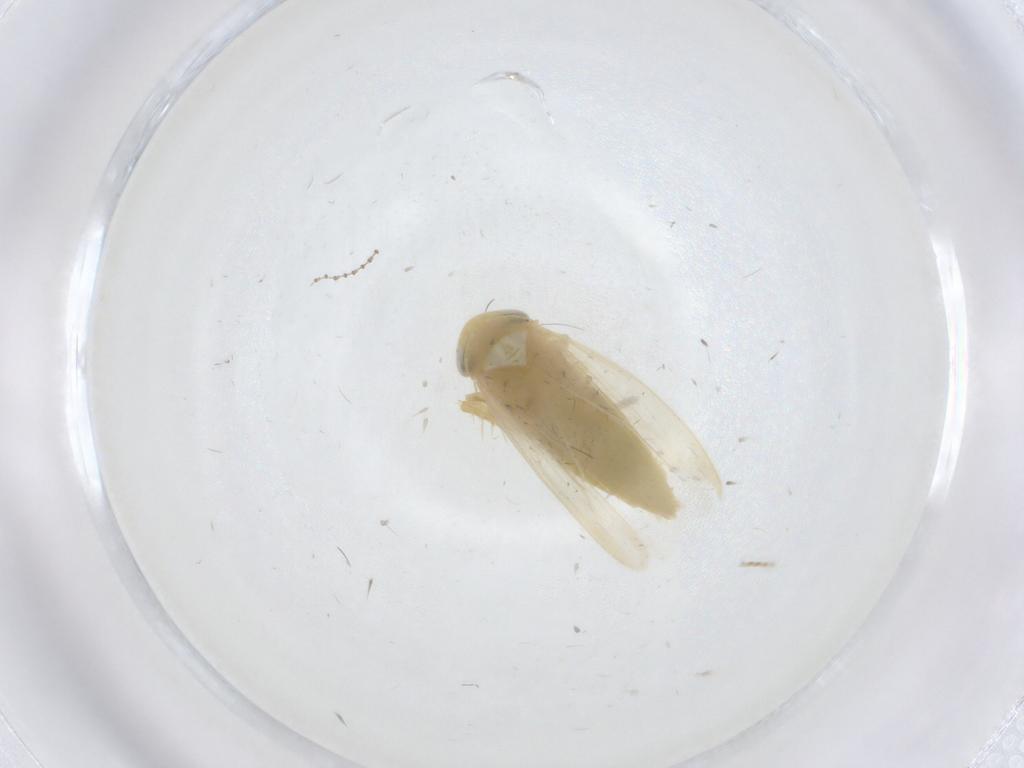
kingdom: Animalia
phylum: Arthropoda
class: Insecta
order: Hemiptera
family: Cicadellidae
